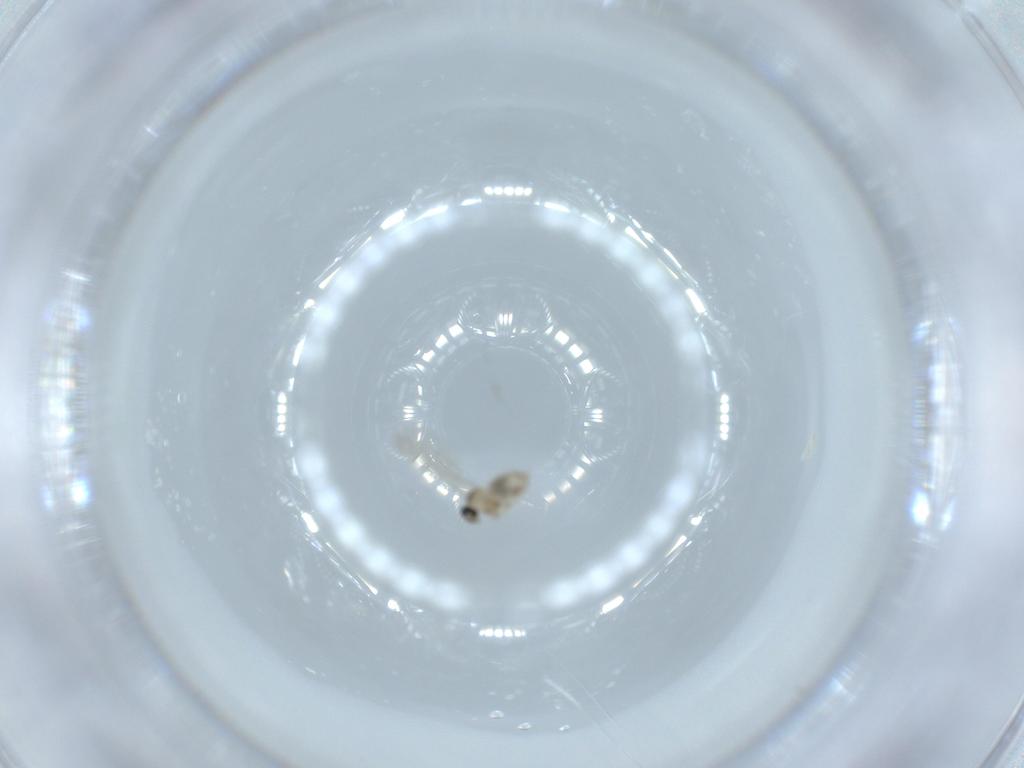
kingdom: Animalia
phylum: Arthropoda
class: Insecta
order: Diptera
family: Cecidomyiidae
